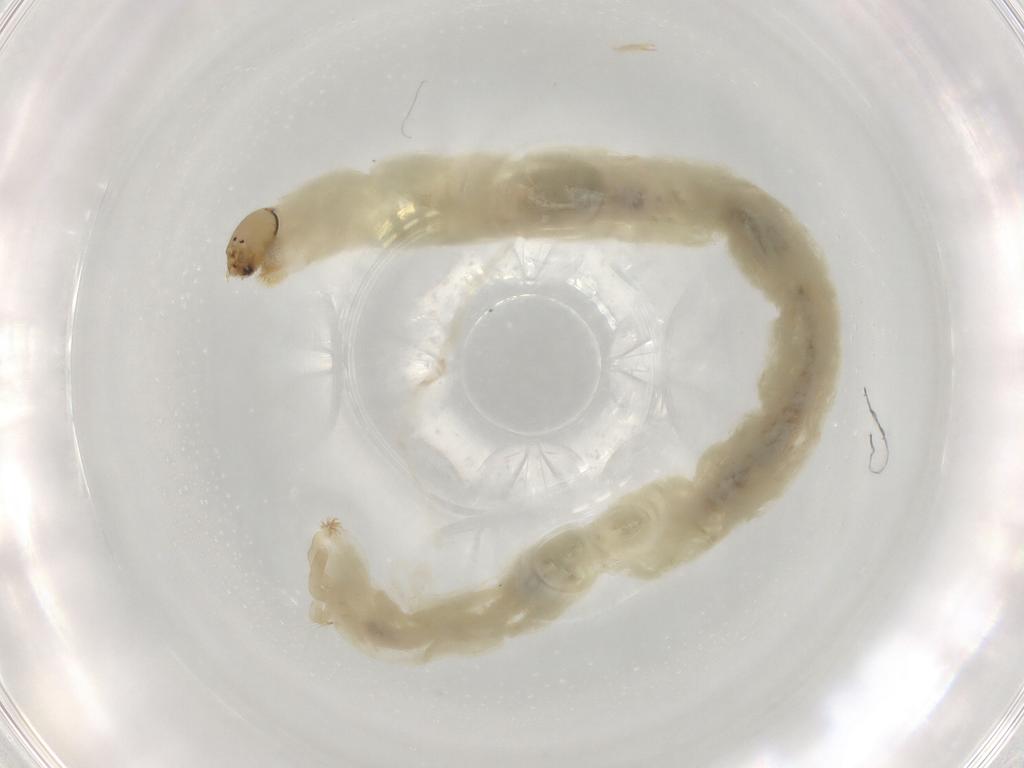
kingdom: Animalia
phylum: Arthropoda
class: Insecta
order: Diptera
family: Chironomidae
